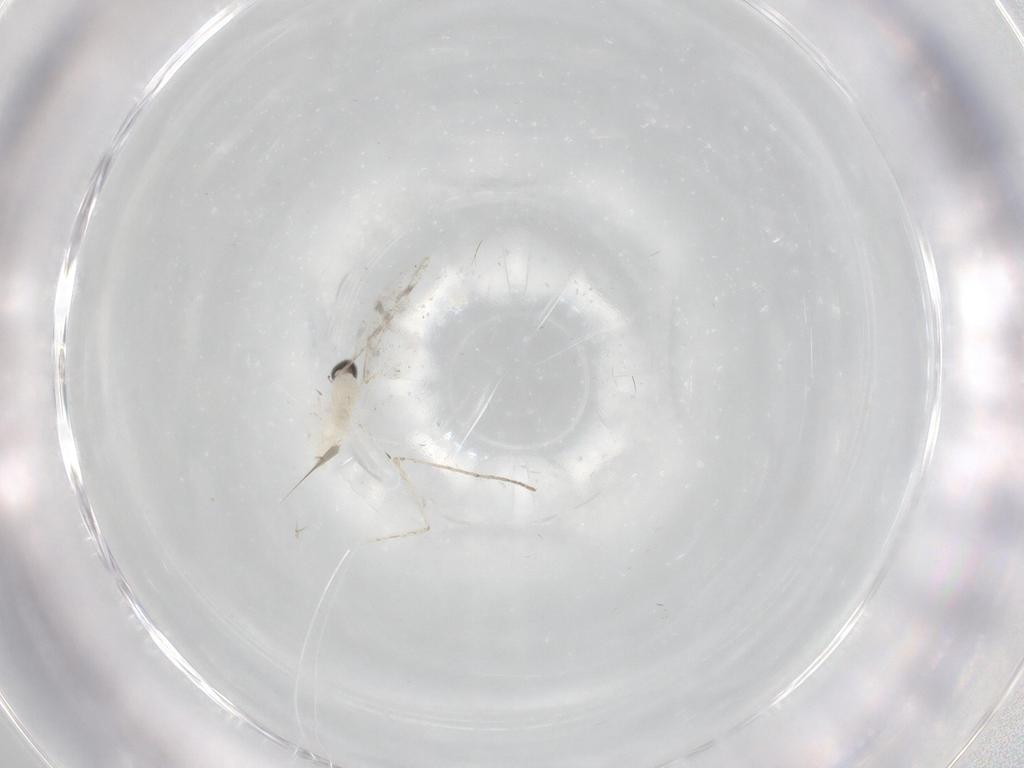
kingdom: Animalia
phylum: Arthropoda
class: Insecta
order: Diptera
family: Cecidomyiidae
